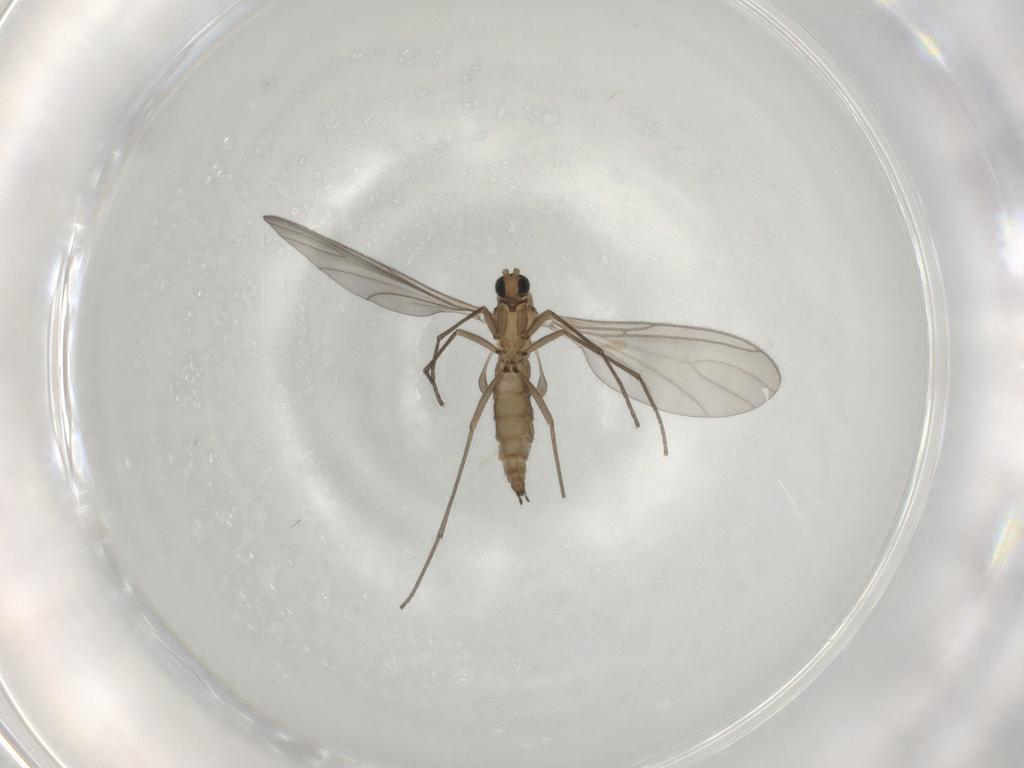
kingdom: Animalia
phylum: Arthropoda
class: Insecta
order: Diptera
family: Sciaridae
